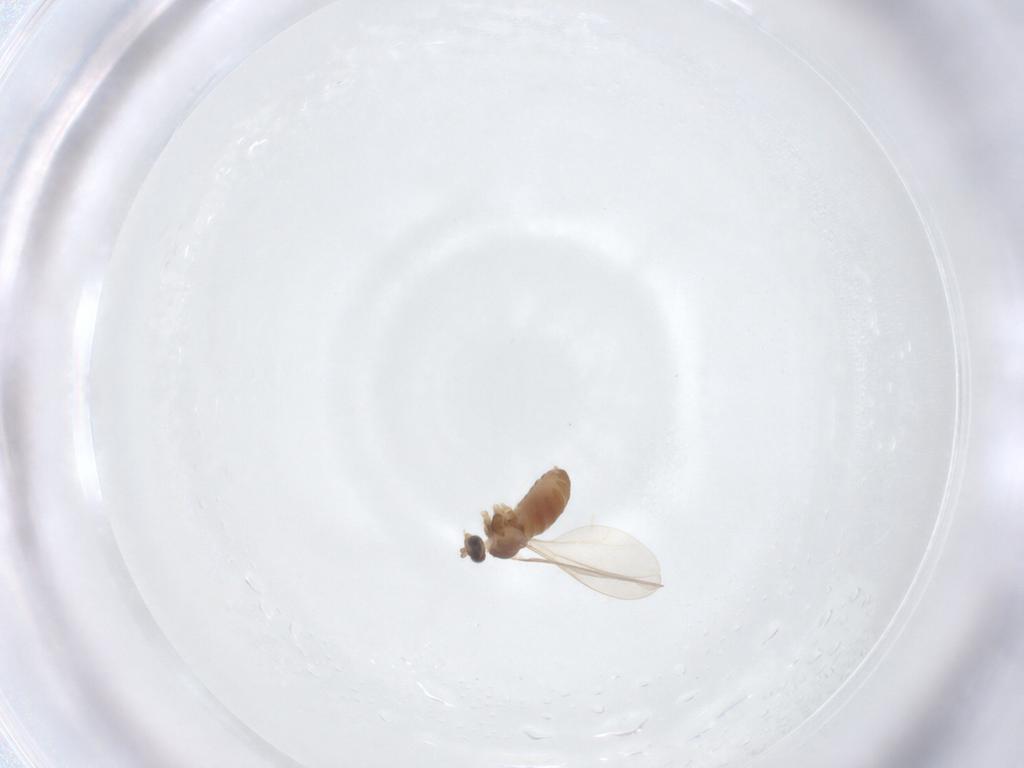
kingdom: Animalia
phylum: Arthropoda
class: Insecta
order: Diptera
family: Cecidomyiidae
